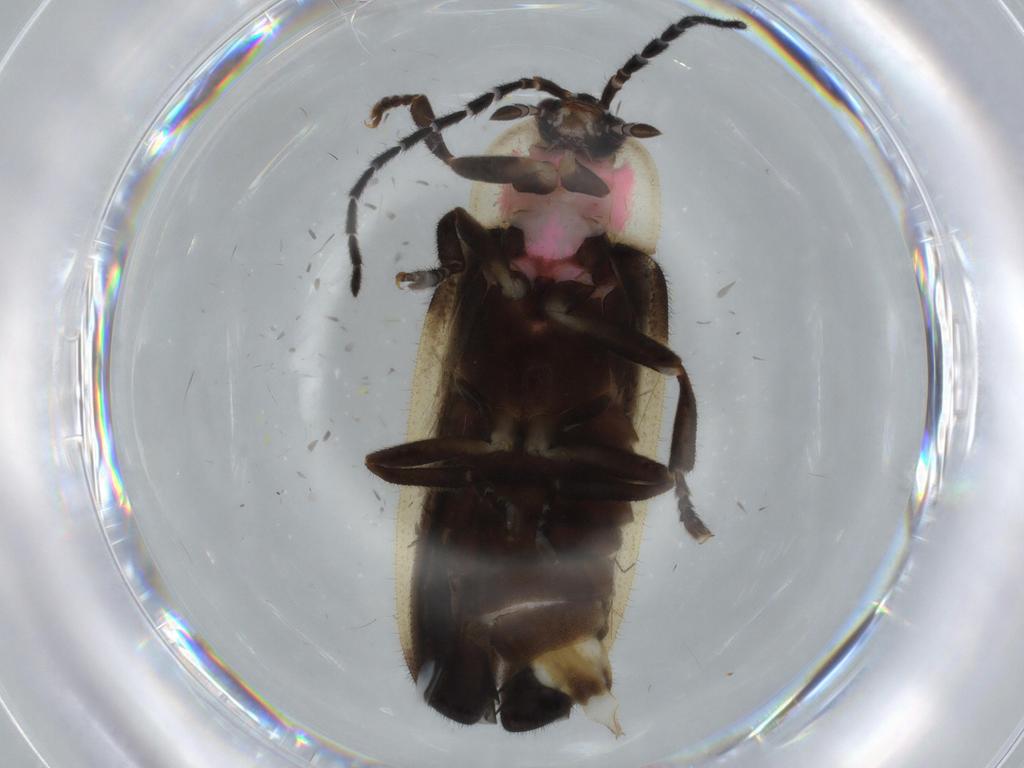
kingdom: Animalia
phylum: Arthropoda
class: Insecta
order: Coleoptera
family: Lampyridae
